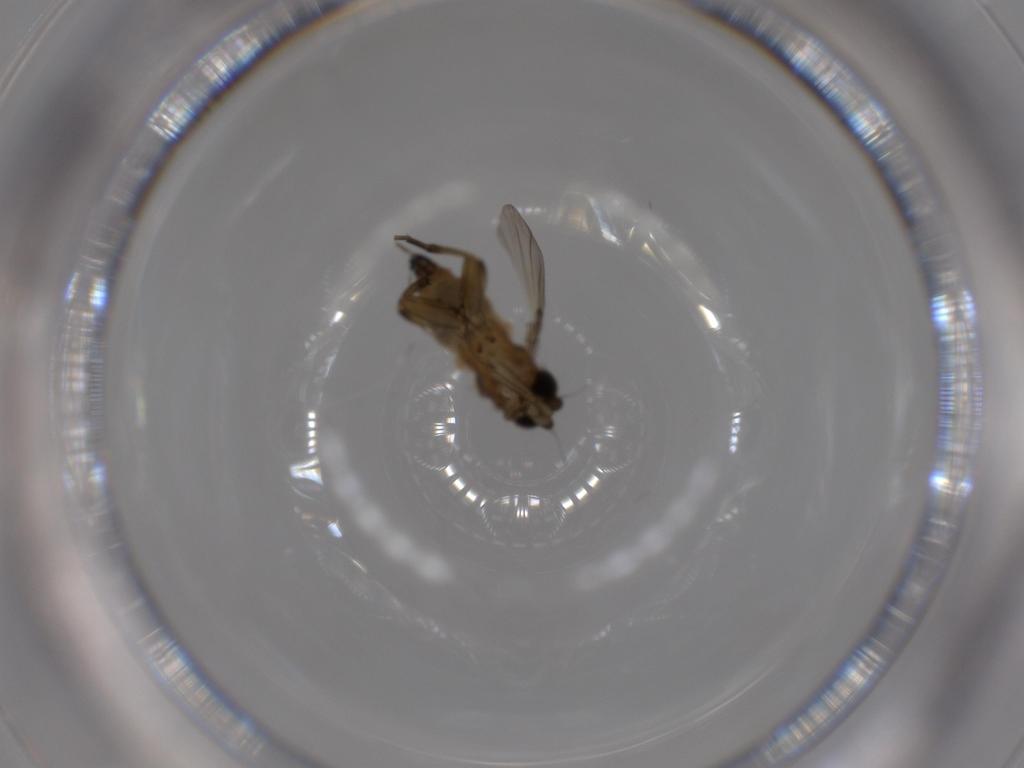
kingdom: Animalia
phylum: Arthropoda
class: Insecta
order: Diptera
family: Phoridae
